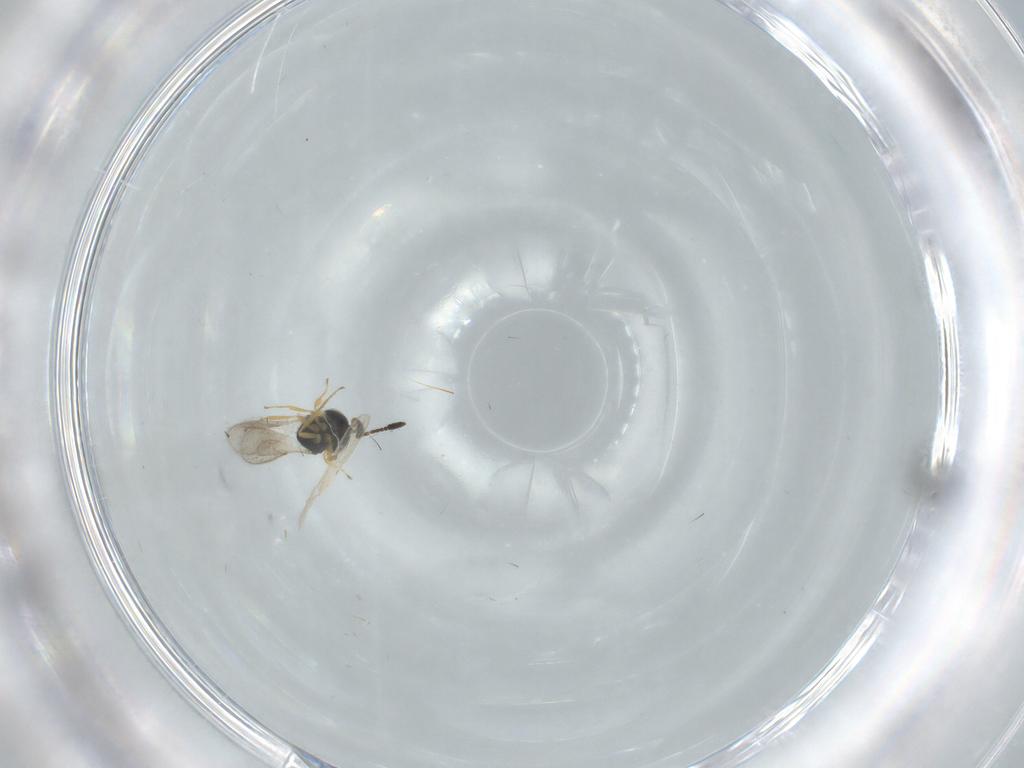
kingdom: Animalia
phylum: Arthropoda
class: Insecta
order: Hymenoptera
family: Scelionidae
